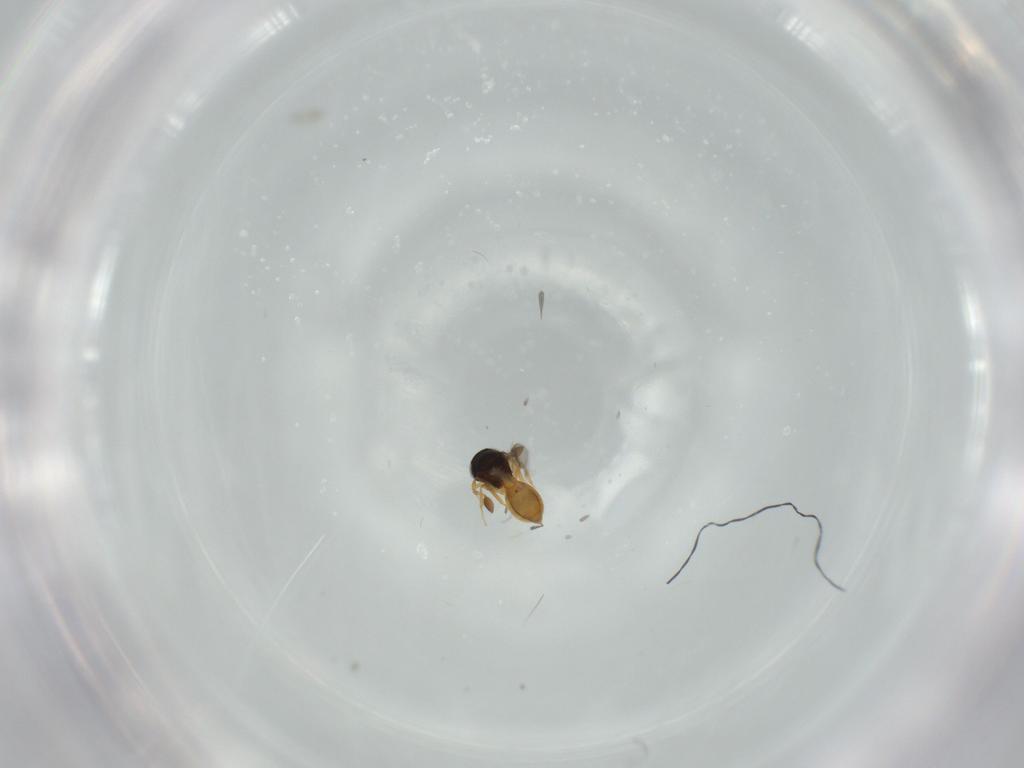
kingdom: Animalia
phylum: Arthropoda
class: Insecta
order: Hymenoptera
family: Scelionidae
